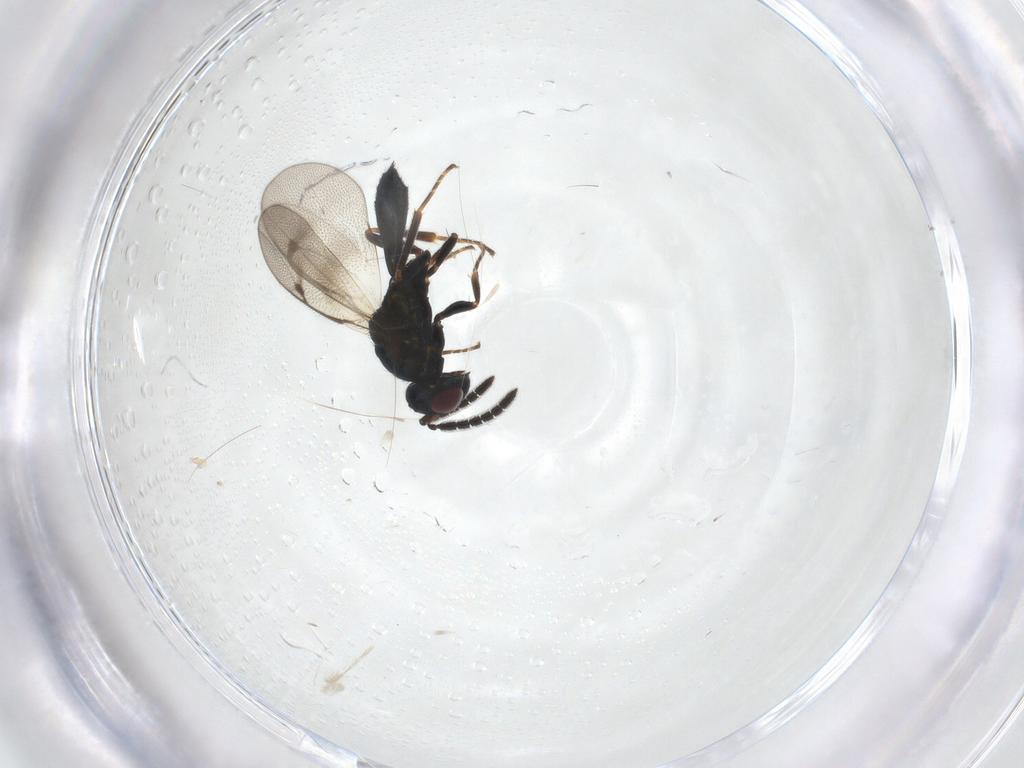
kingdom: Animalia
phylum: Arthropoda
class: Insecta
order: Hymenoptera
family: Pteromalidae
